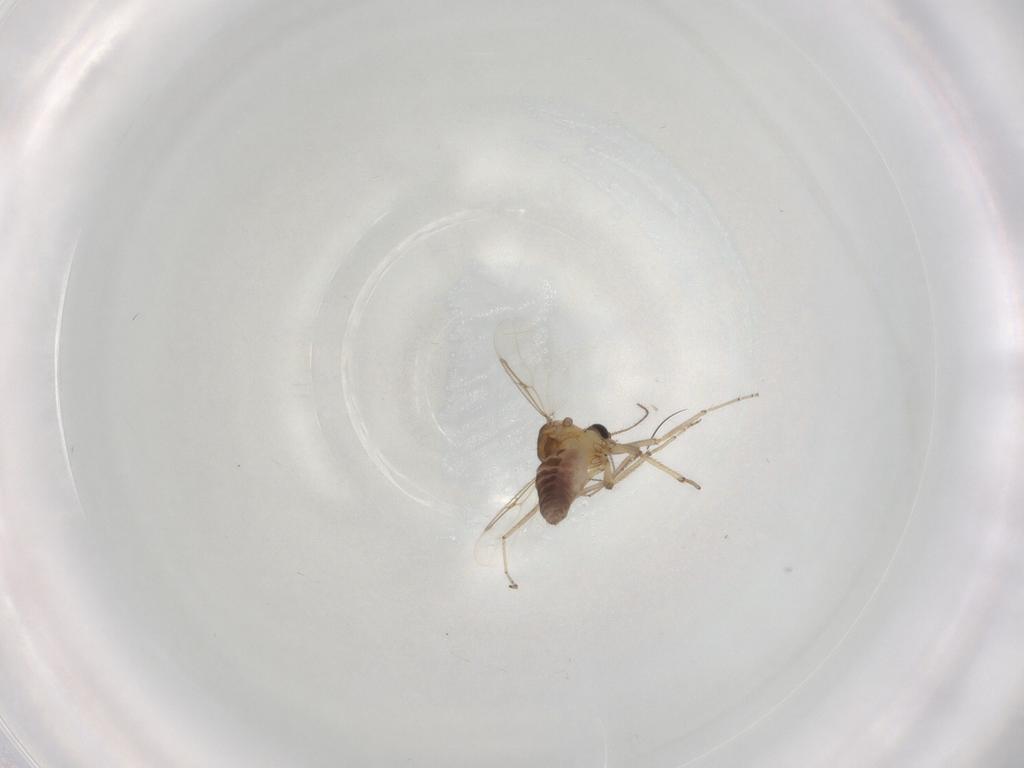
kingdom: Animalia
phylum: Arthropoda
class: Insecta
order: Diptera
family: Ceratopogonidae
